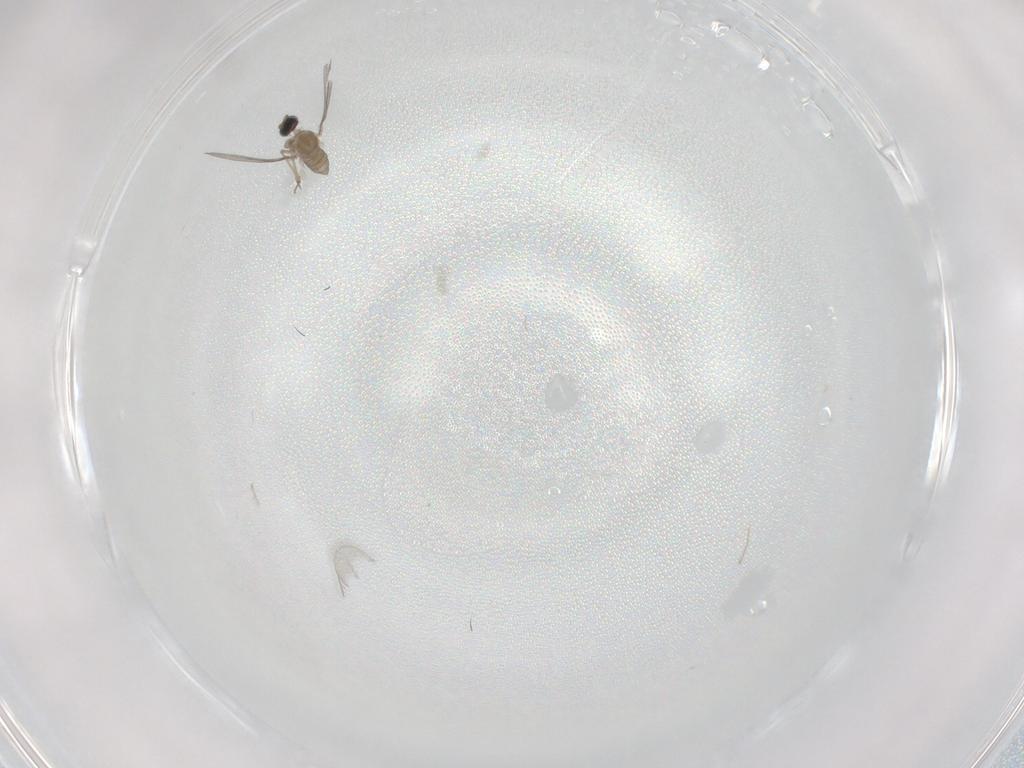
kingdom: Animalia
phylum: Arthropoda
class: Insecta
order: Diptera
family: Cecidomyiidae
